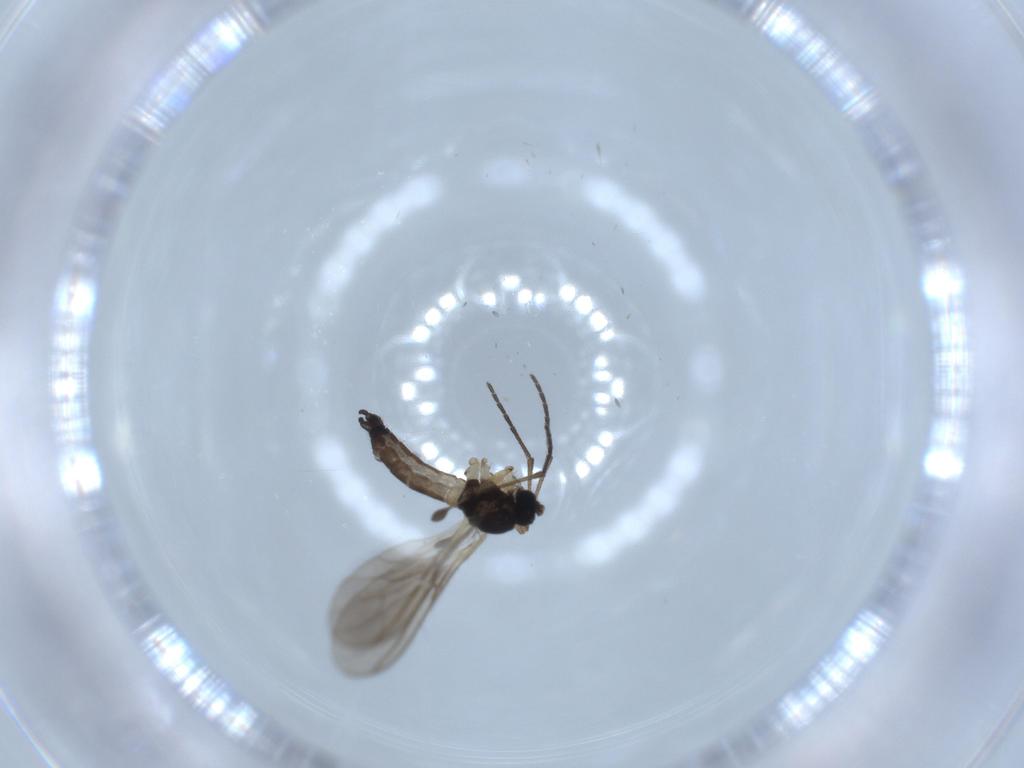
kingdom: Animalia
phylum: Arthropoda
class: Insecta
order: Diptera
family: Sciaridae
